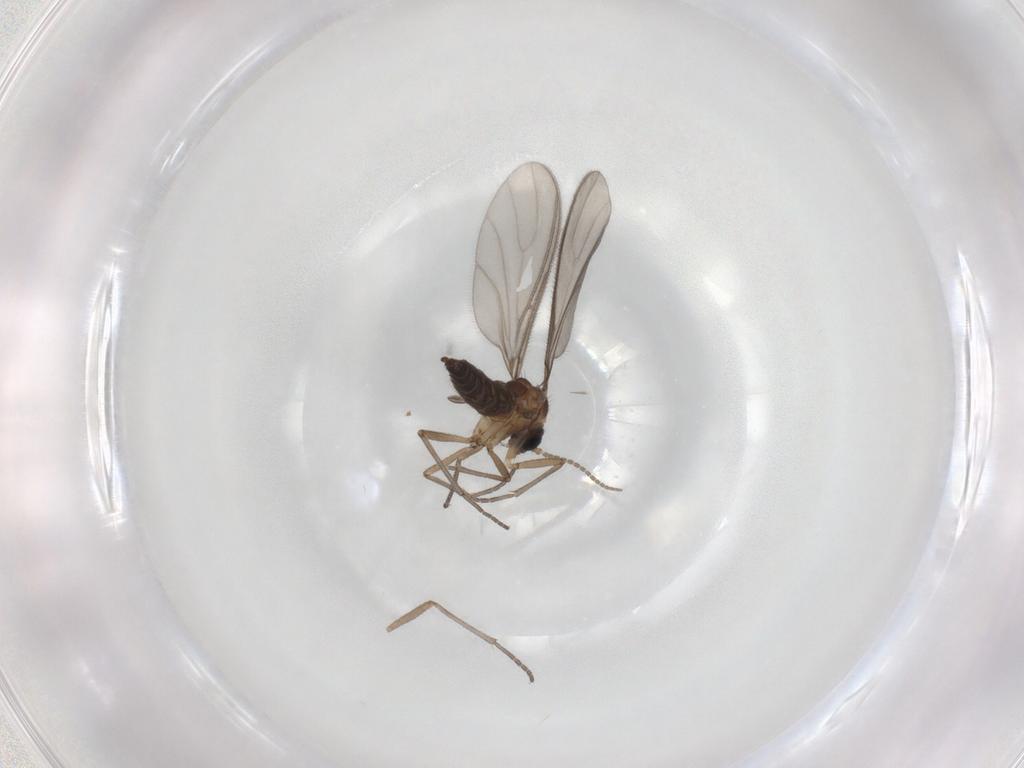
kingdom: Animalia
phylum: Arthropoda
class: Insecta
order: Diptera
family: Sciaridae
